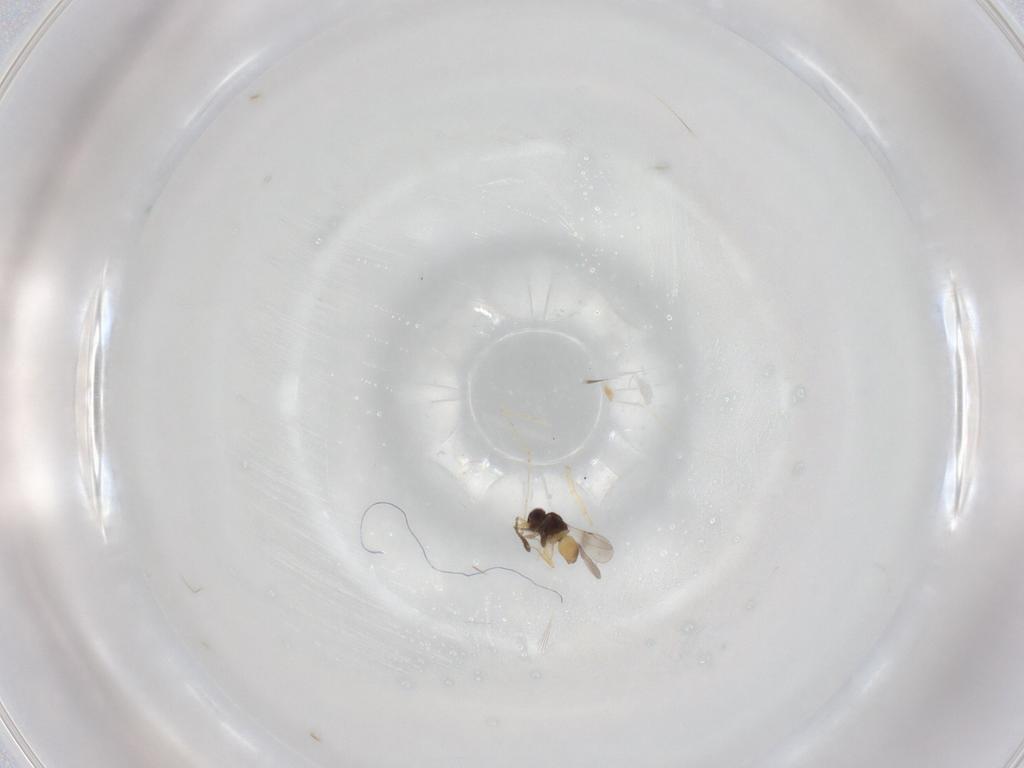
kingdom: Animalia
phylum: Arthropoda
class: Insecta
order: Hymenoptera
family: Scelionidae
